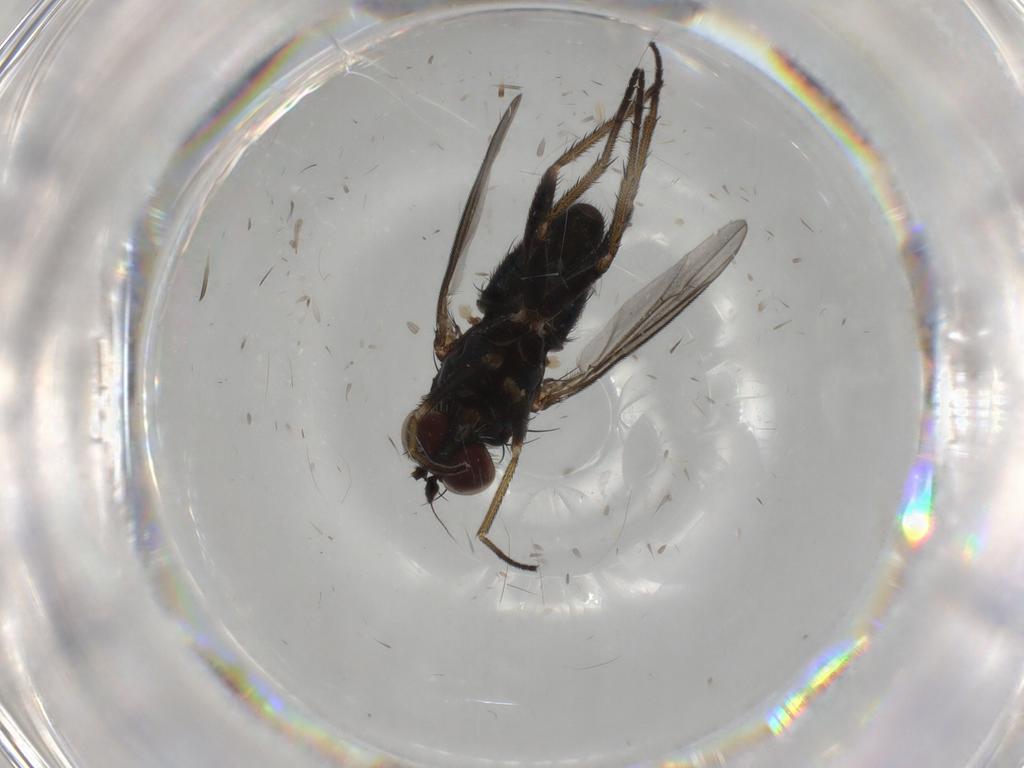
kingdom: Animalia
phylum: Arthropoda
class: Insecta
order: Diptera
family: Dolichopodidae
